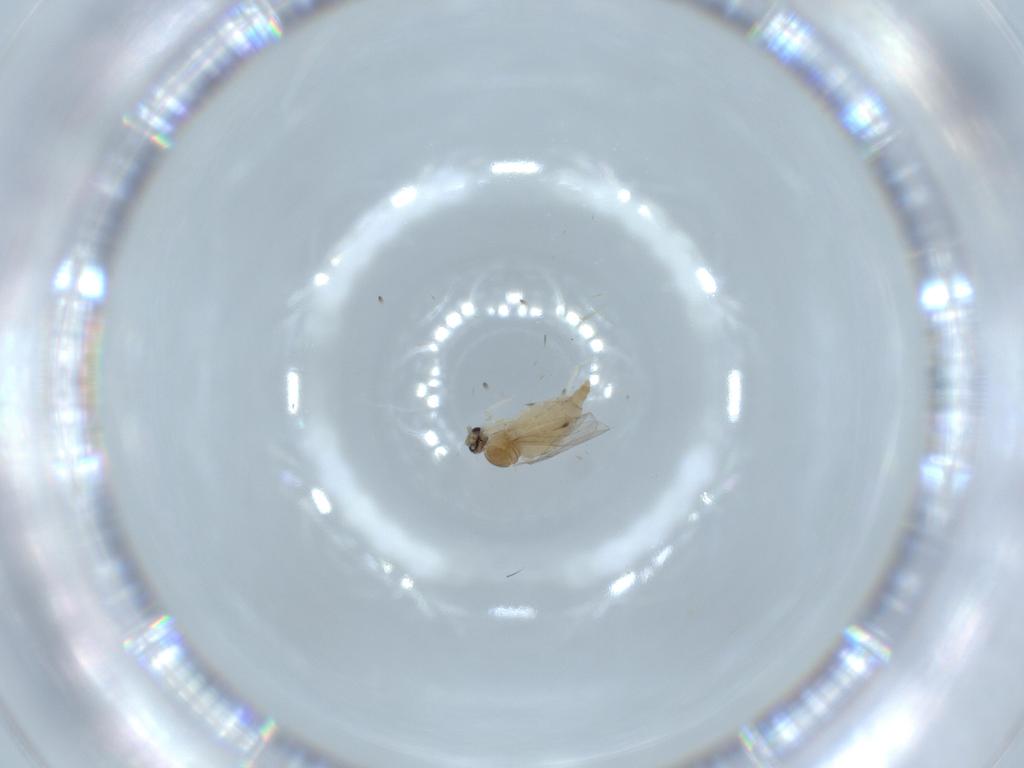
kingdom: Animalia
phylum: Arthropoda
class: Insecta
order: Diptera
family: Cecidomyiidae
